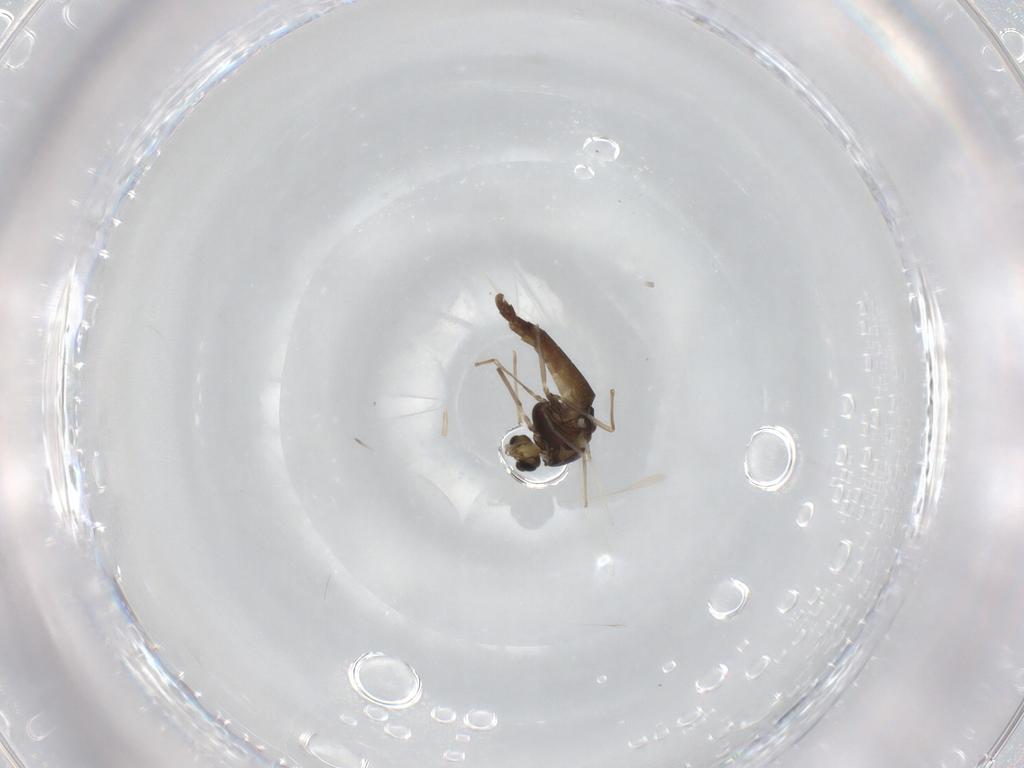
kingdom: Animalia
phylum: Arthropoda
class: Insecta
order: Diptera
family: Chironomidae
